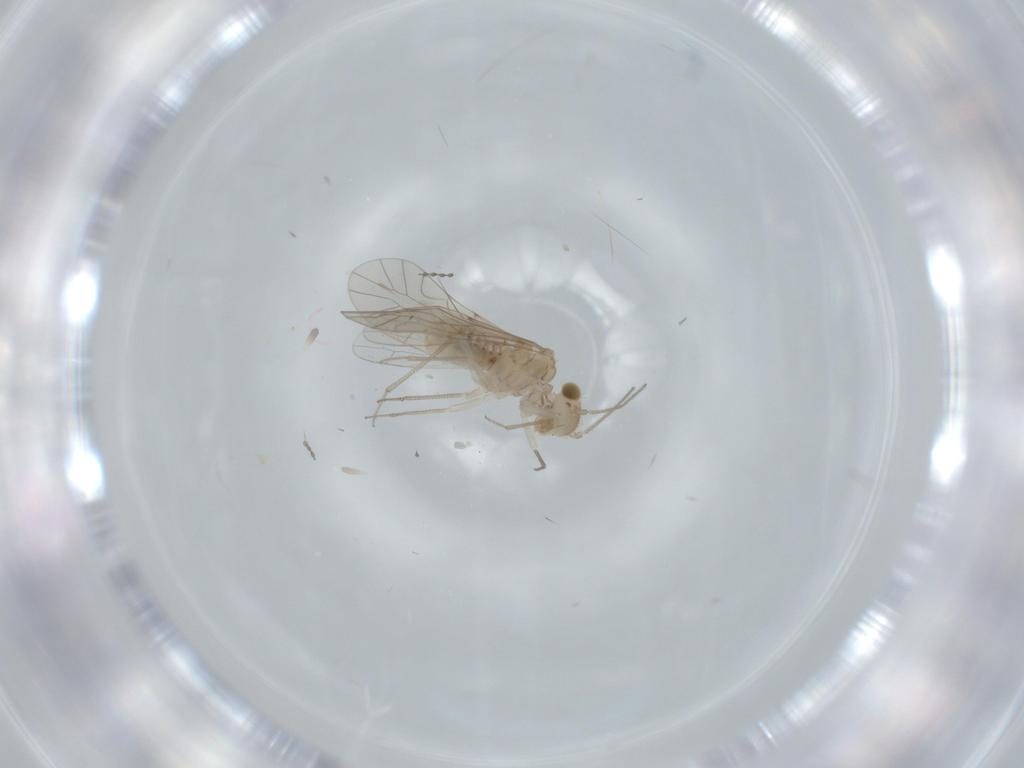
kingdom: Animalia
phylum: Arthropoda
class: Insecta
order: Psocodea
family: Lachesillidae
